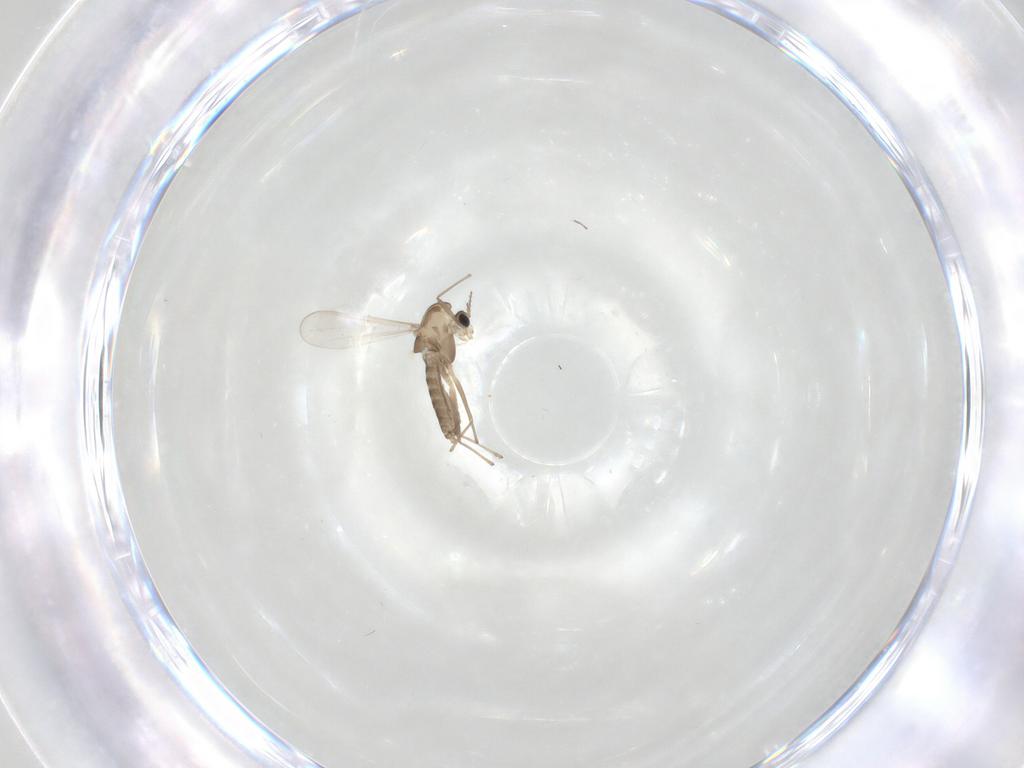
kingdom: Animalia
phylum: Arthropoda
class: Insecta
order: Diptera
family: Chironomidae
